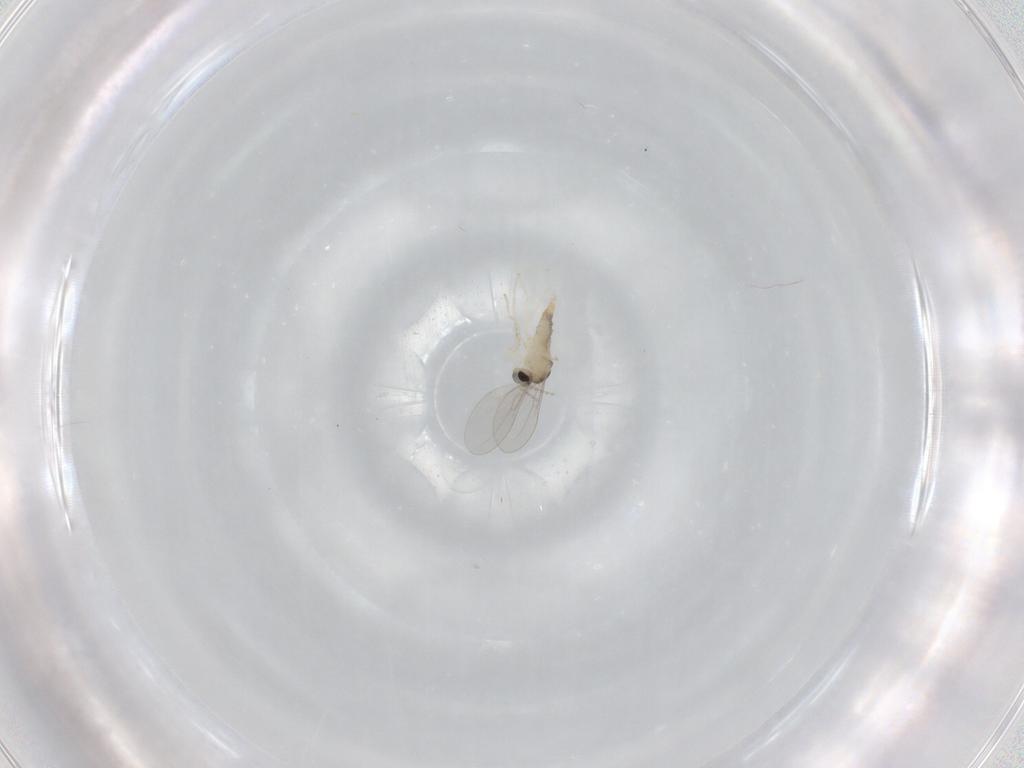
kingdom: Animalia
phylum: Arthropoda
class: Insecta
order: Diptera
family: Cecidomyiidae
